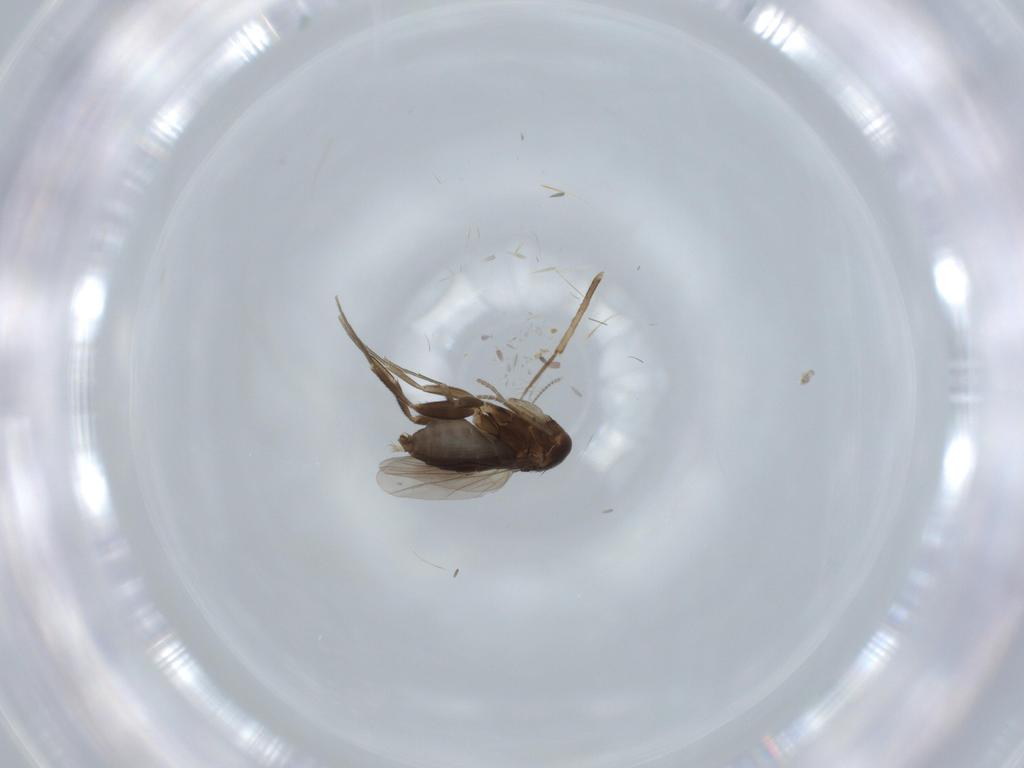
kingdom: Animalia
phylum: Arthropoda
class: Insecta
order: Diptera
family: Phoridae
